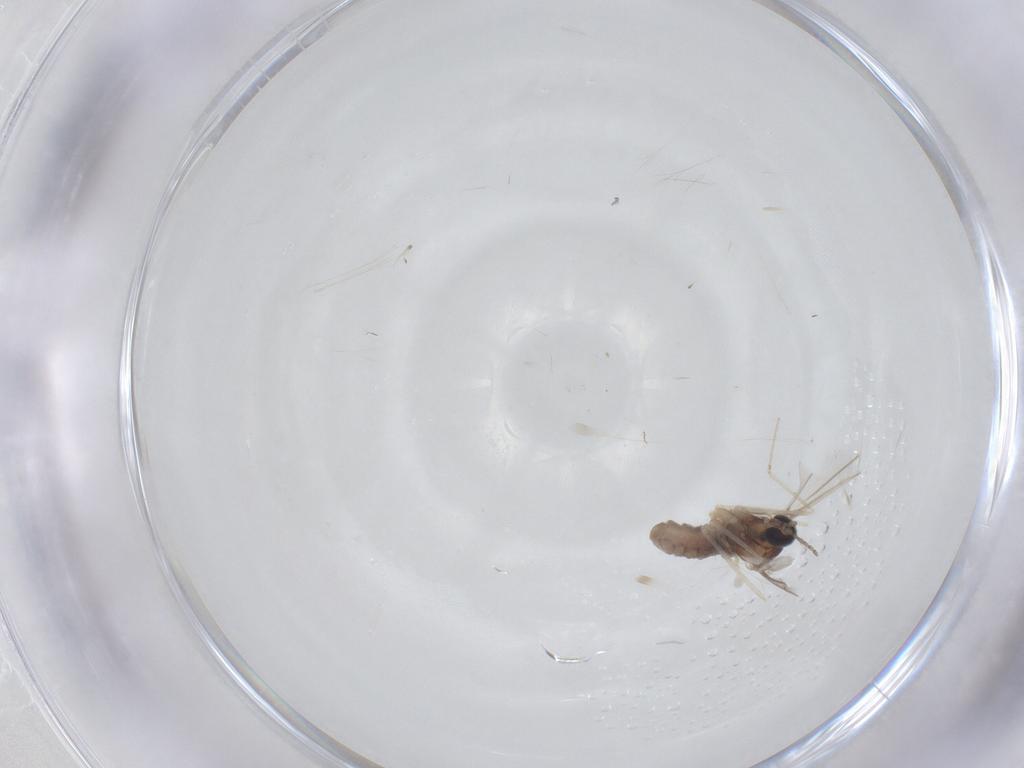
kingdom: Animalia
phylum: Arthropoda
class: Insecta
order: Diptera
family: Cecidomyiidae
